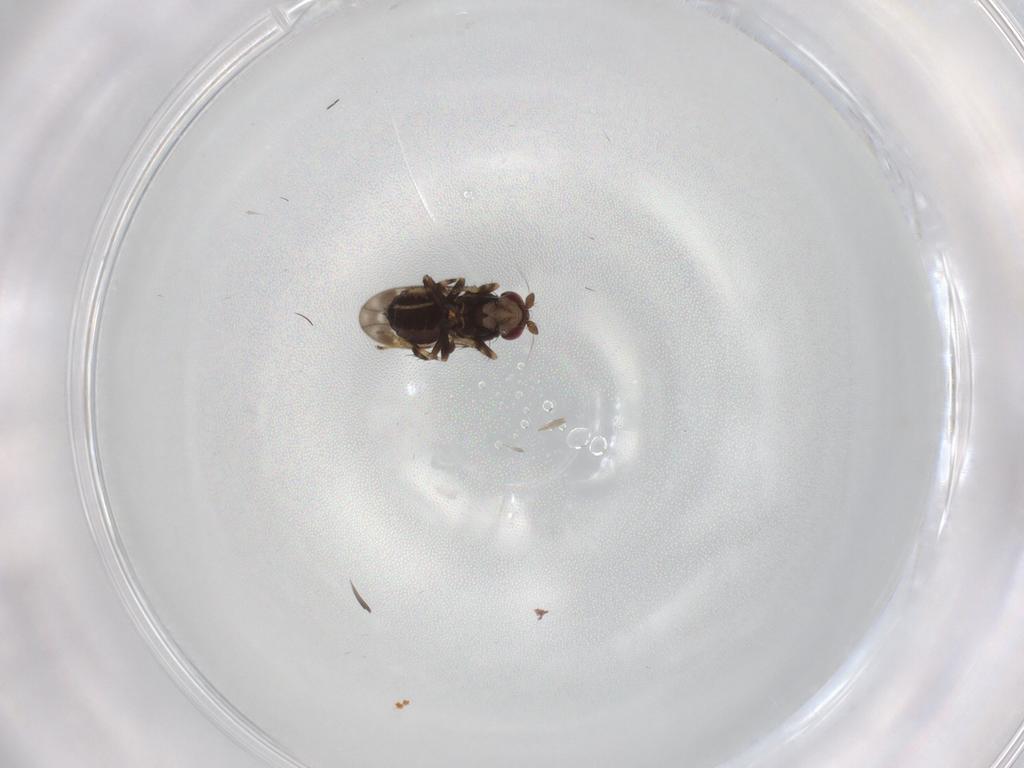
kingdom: Animalia
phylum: Arthropoda
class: Insecta
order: Diptera
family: Sphaeroceridae
